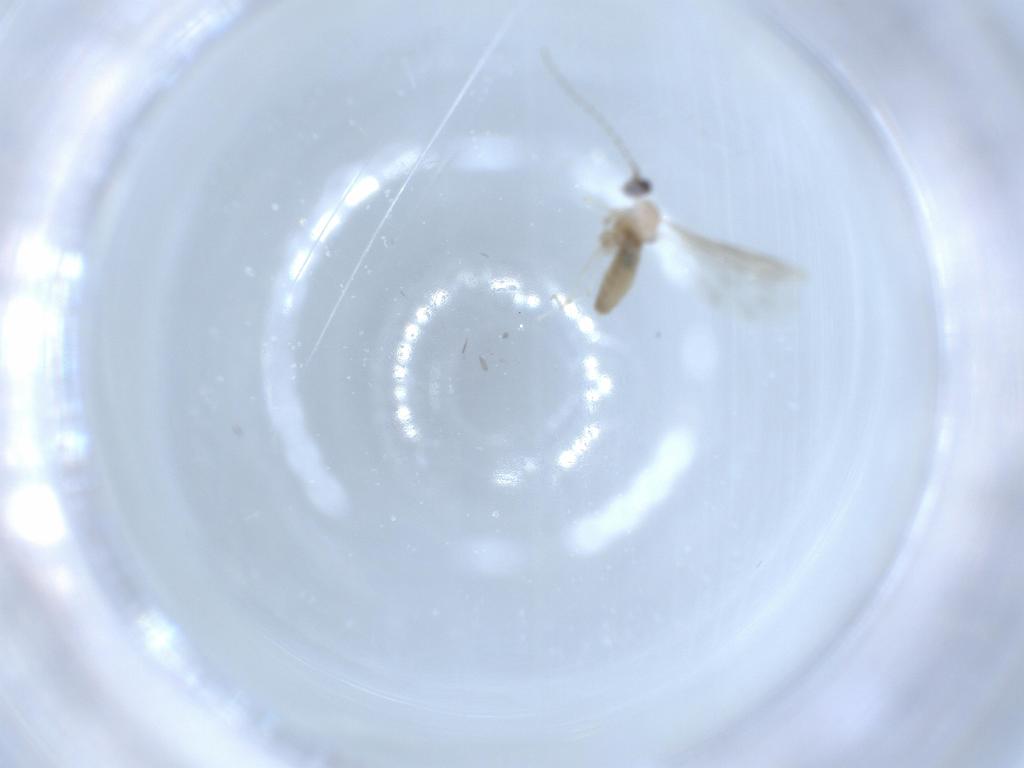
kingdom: Animalia
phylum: Arthropoda
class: Insecta
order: Diptera
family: Cecidomyiidae
